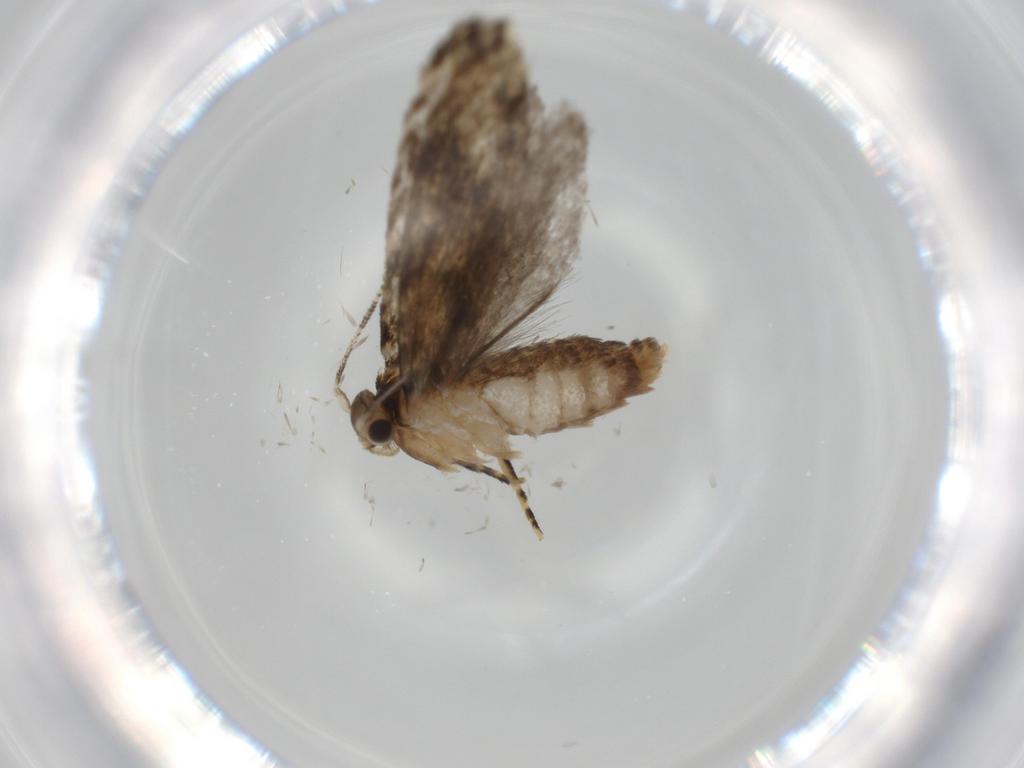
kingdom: Animalia
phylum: Arthropoda
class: Insecta
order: Lepidoptera
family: Tineidae
